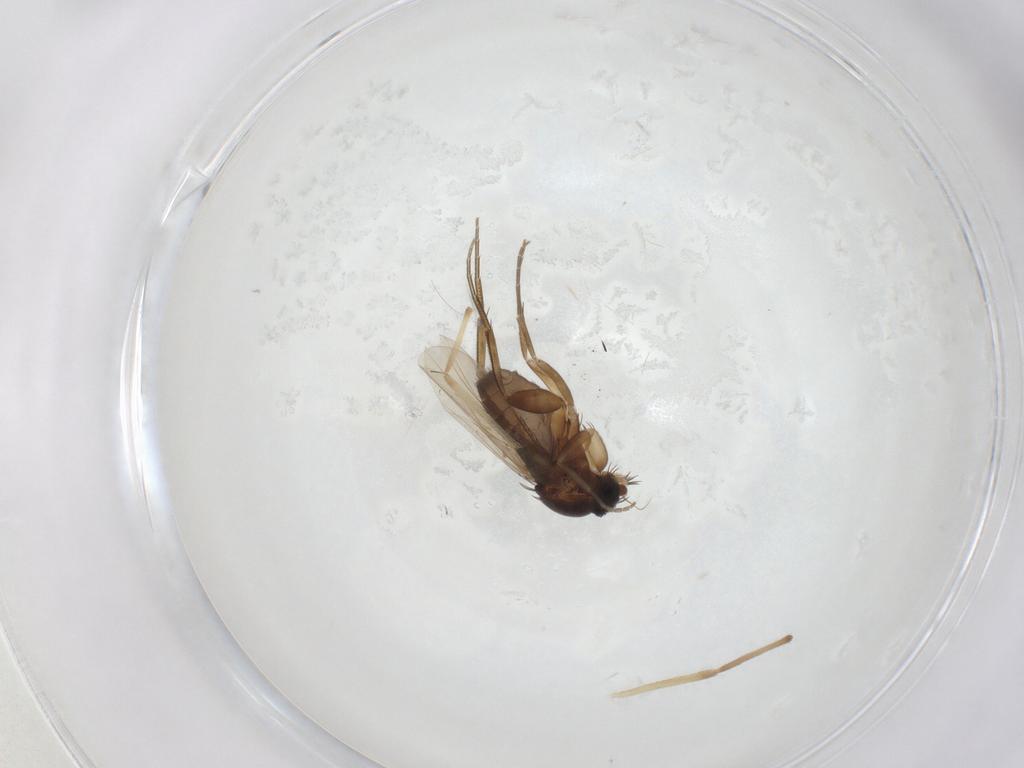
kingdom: Animalia
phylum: Arthropoda
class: Insecta
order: Diptera
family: Phoridae
